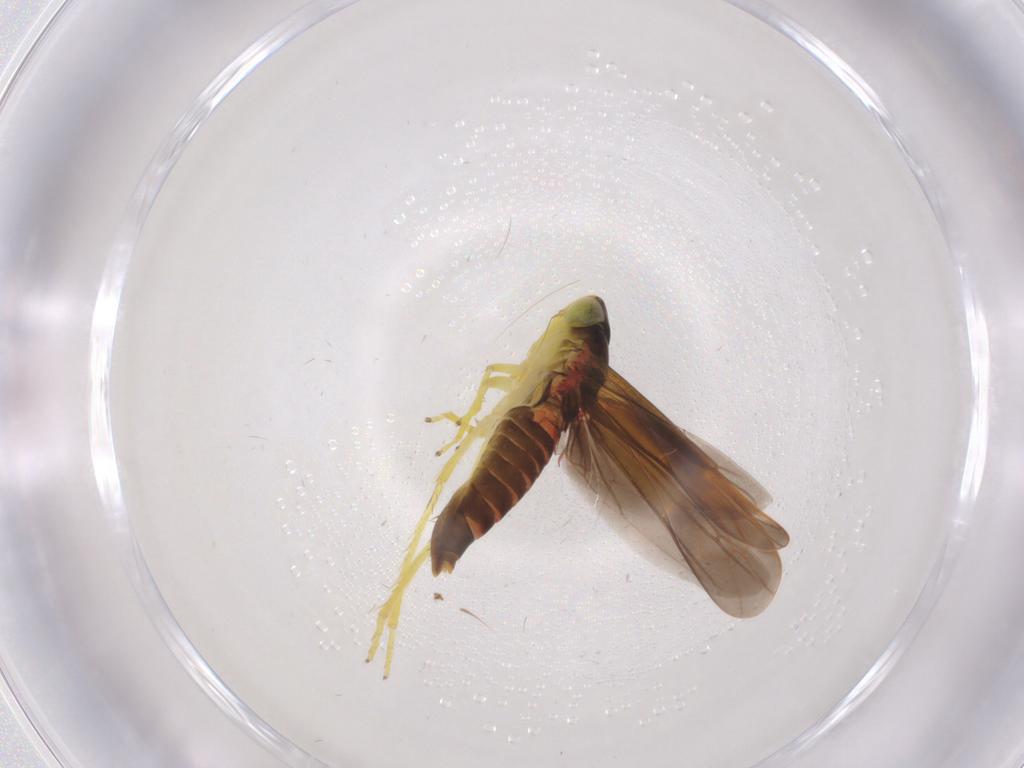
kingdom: Animalia
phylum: Arthropoda
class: Insecta
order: Hemiptera
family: Cicadellidae
